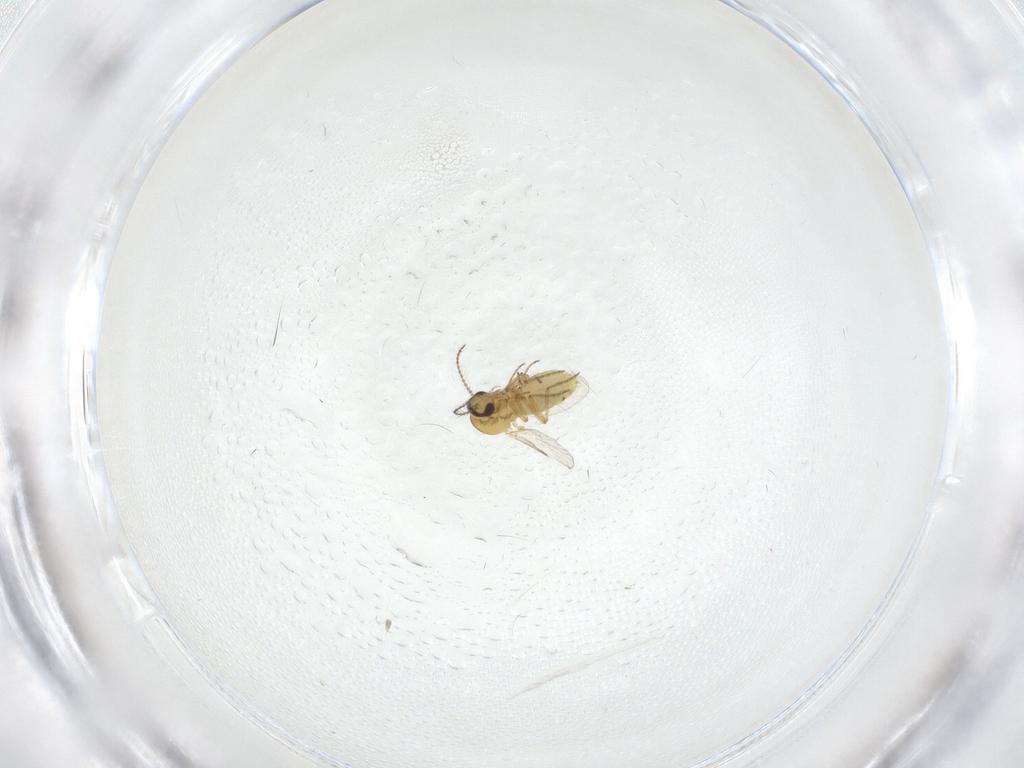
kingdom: Animalia
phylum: Arthropoda
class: Insecta
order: Diptera
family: Ceratopogonidae
